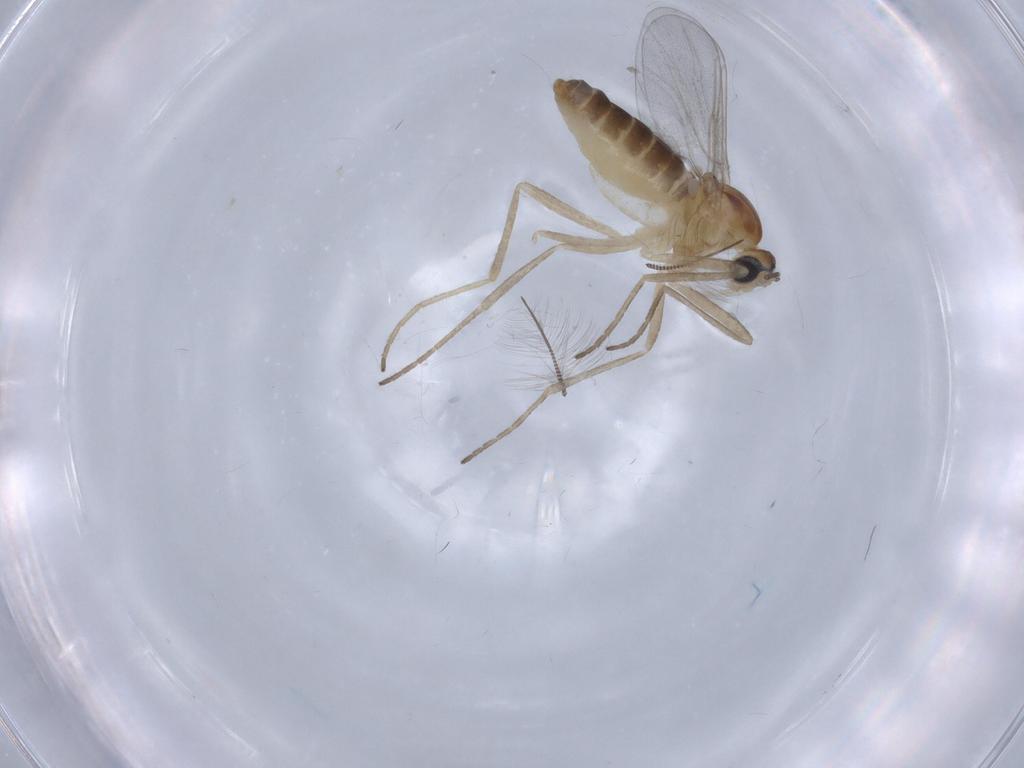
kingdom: Animalia
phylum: Arthropoda
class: Insecta
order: Diptera
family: Cecidomyiidae
